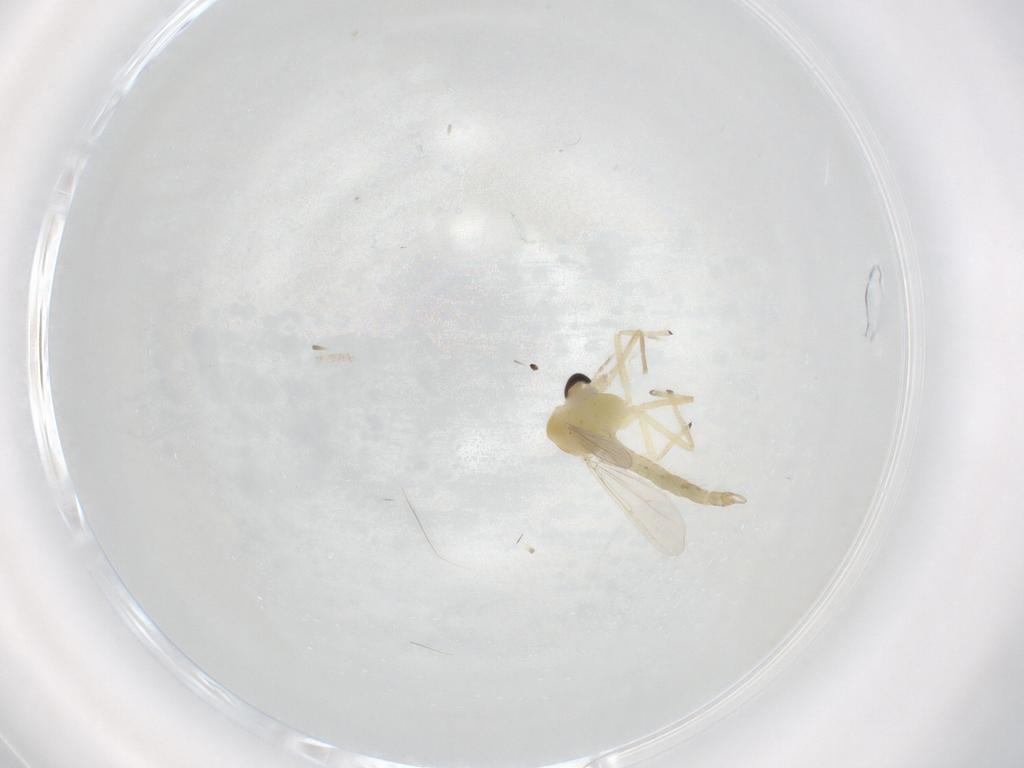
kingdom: Animalia
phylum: Arthropoda
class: Insecta
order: Diptera
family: Chironomidae
